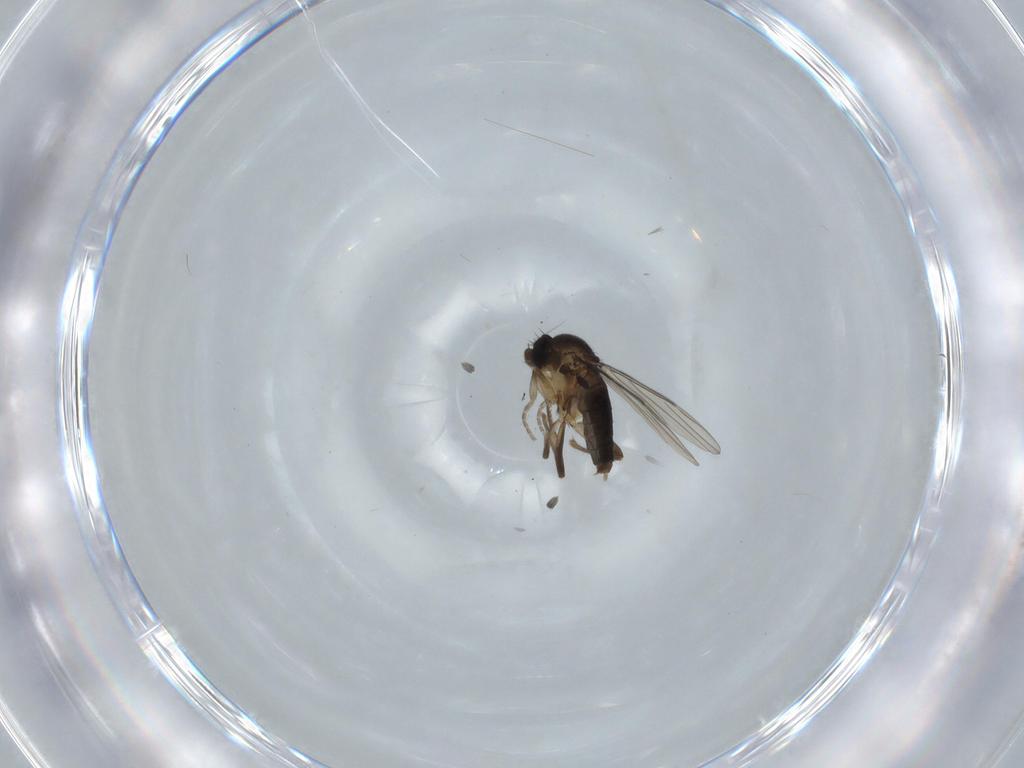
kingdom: Animalia
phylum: Arthropoda
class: Insecta
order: Diptera
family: Phoridae
